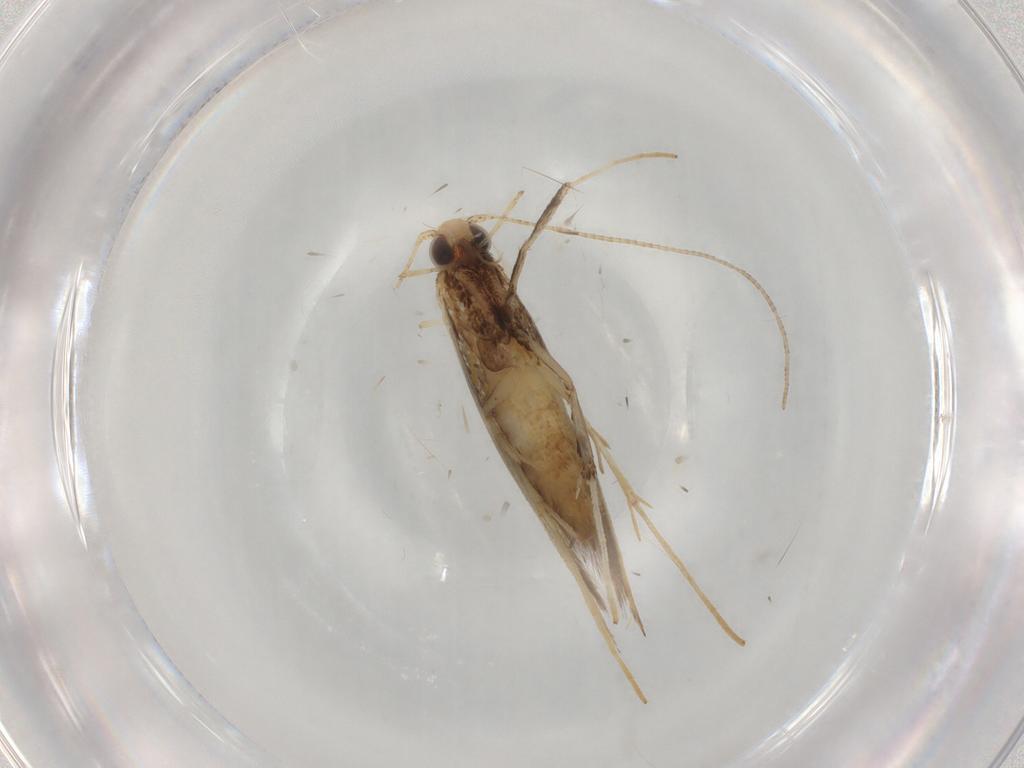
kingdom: Animalia
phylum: Arthropoda
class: Insecta
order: Lepidoptera
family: Gracillariidae
